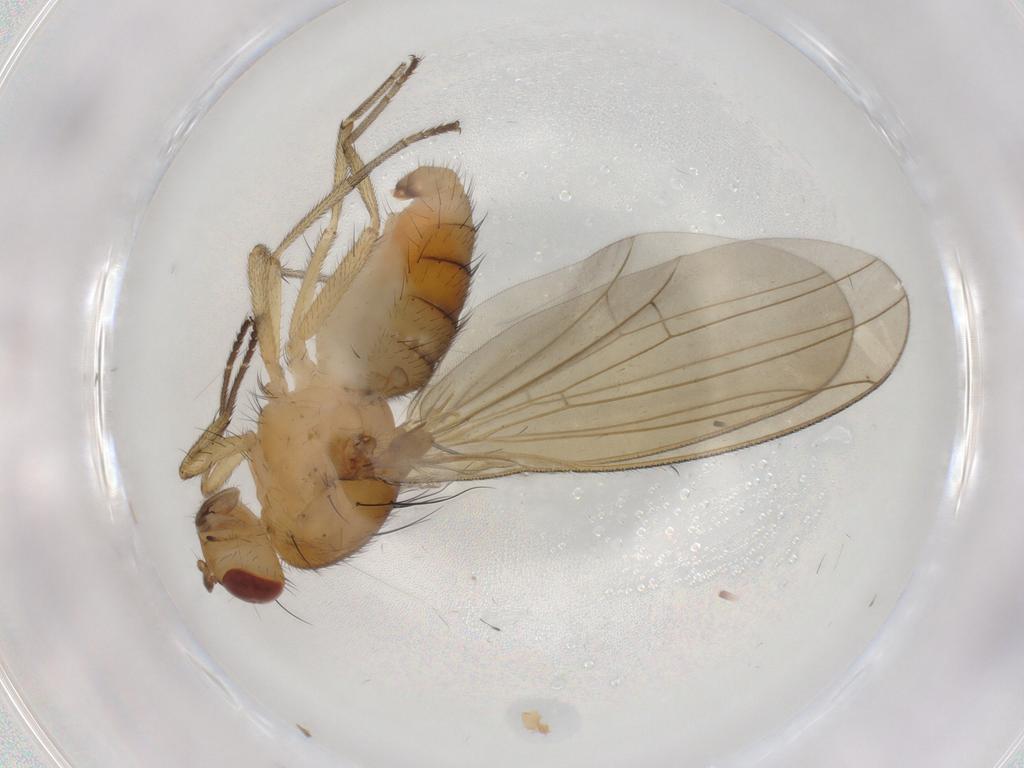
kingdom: Animalia
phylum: Arthropoda
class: Insecta
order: Diptera
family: Lauxaniidae
